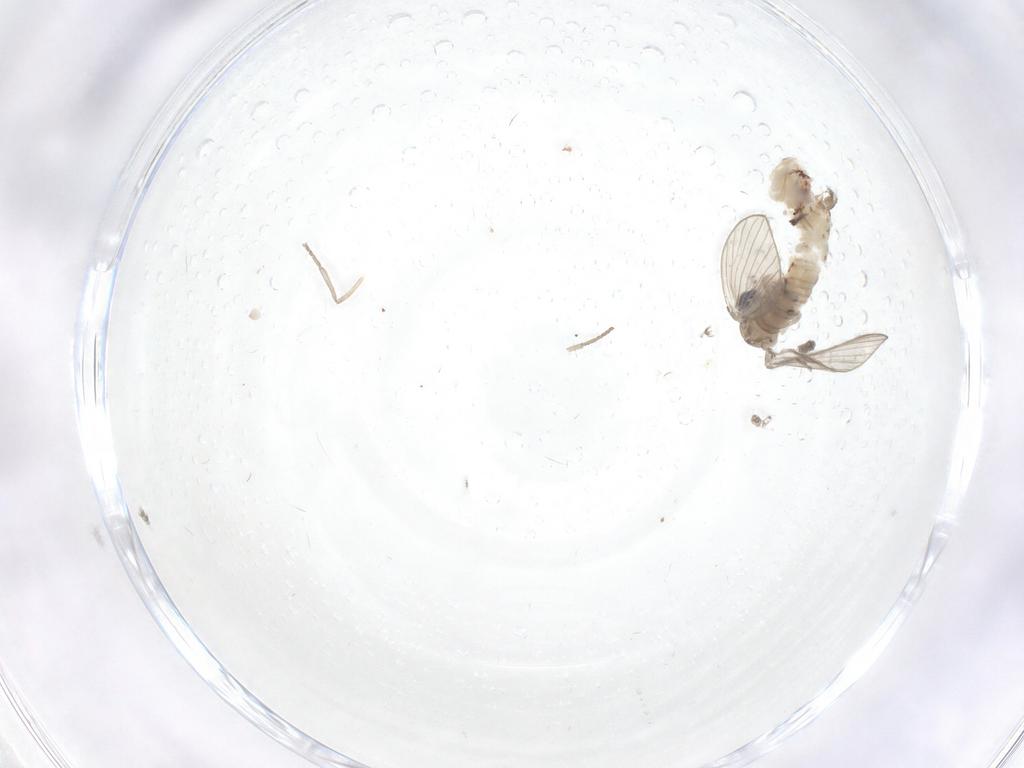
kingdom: Animalia
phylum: Arthropoda
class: Insecta
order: Diptera
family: Psychodidae
